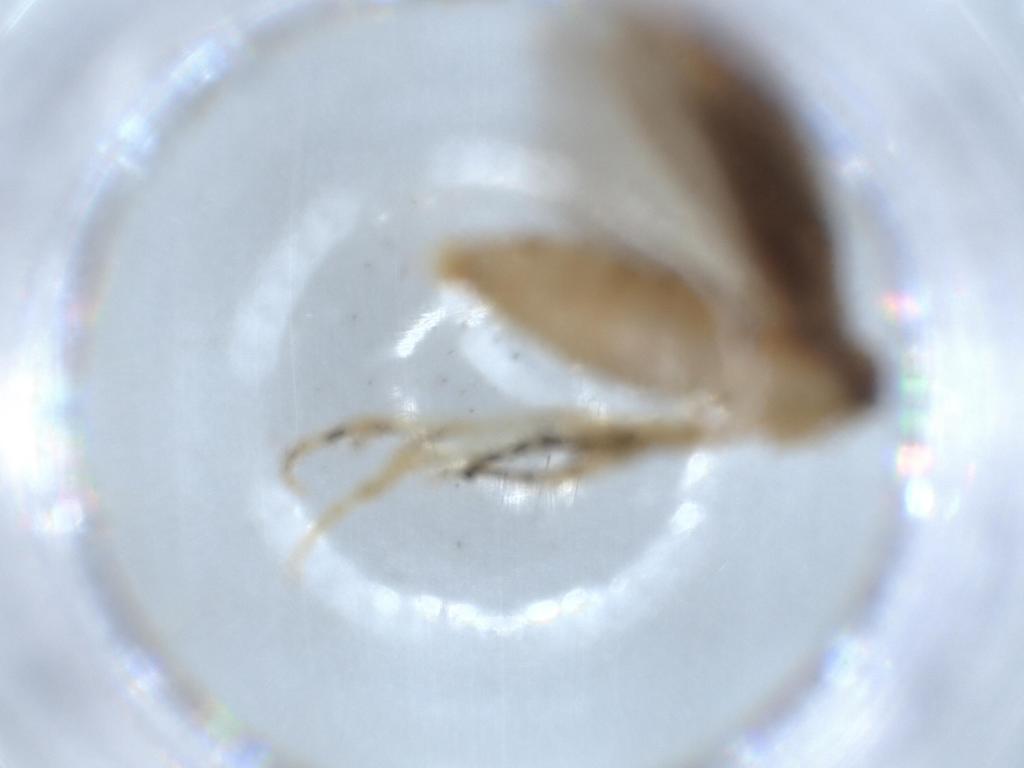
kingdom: Animalia
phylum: Arthropoda
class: Insecta
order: Lepidoptera
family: Gelechiidae
